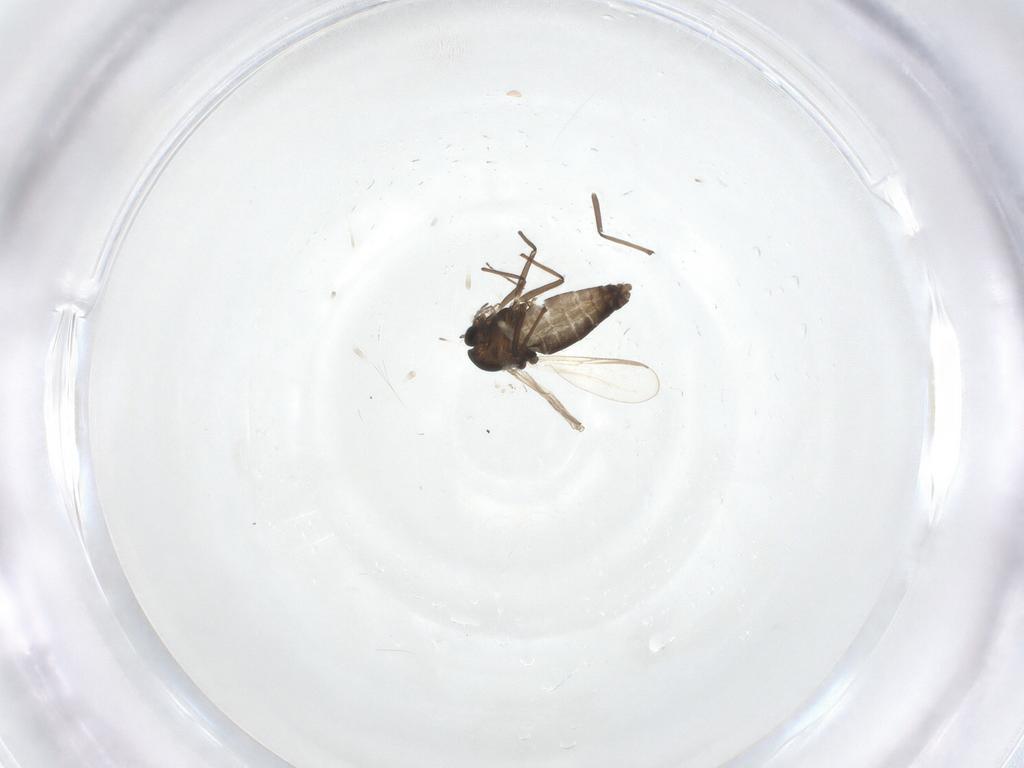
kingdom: Animalia
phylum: Arthropoda
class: Insecta
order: Diptera
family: Chironomidae
